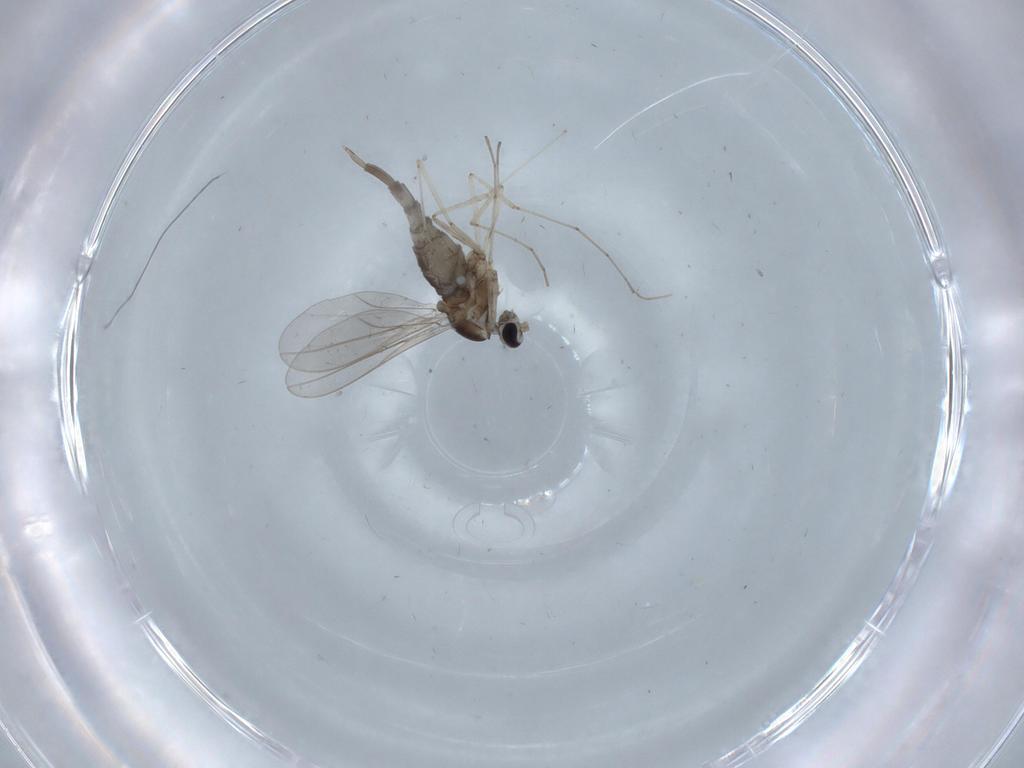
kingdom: Animalia
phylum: Arthropoda
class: Insecta
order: Diptera
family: Cecidomyiidae
